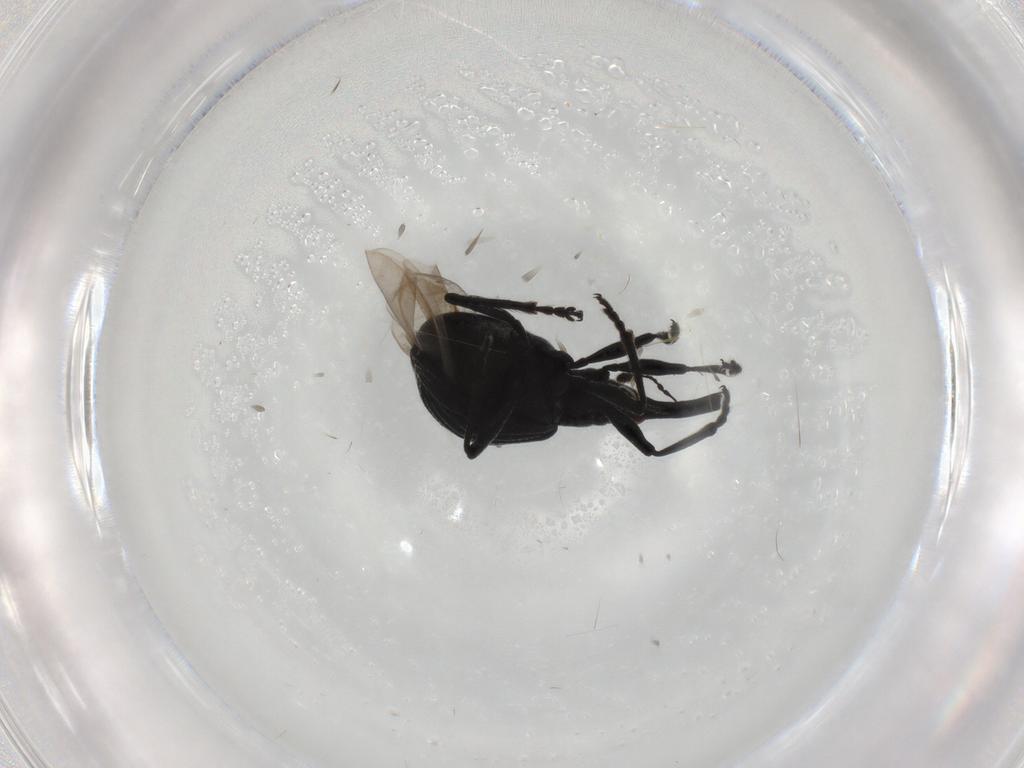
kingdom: Animalia
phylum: Arthropoda
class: Insecta
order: Coleoptera
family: Brentidae
